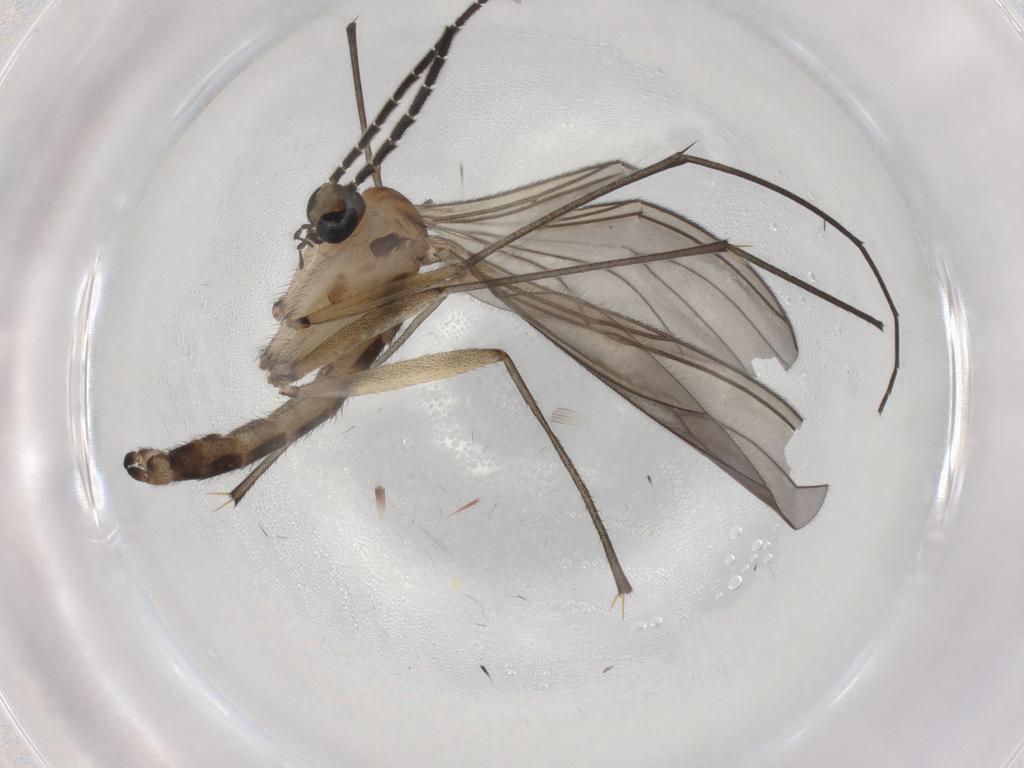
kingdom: Animalia
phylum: Arthropoda
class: Insecta
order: Diptera
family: Sciaridae
